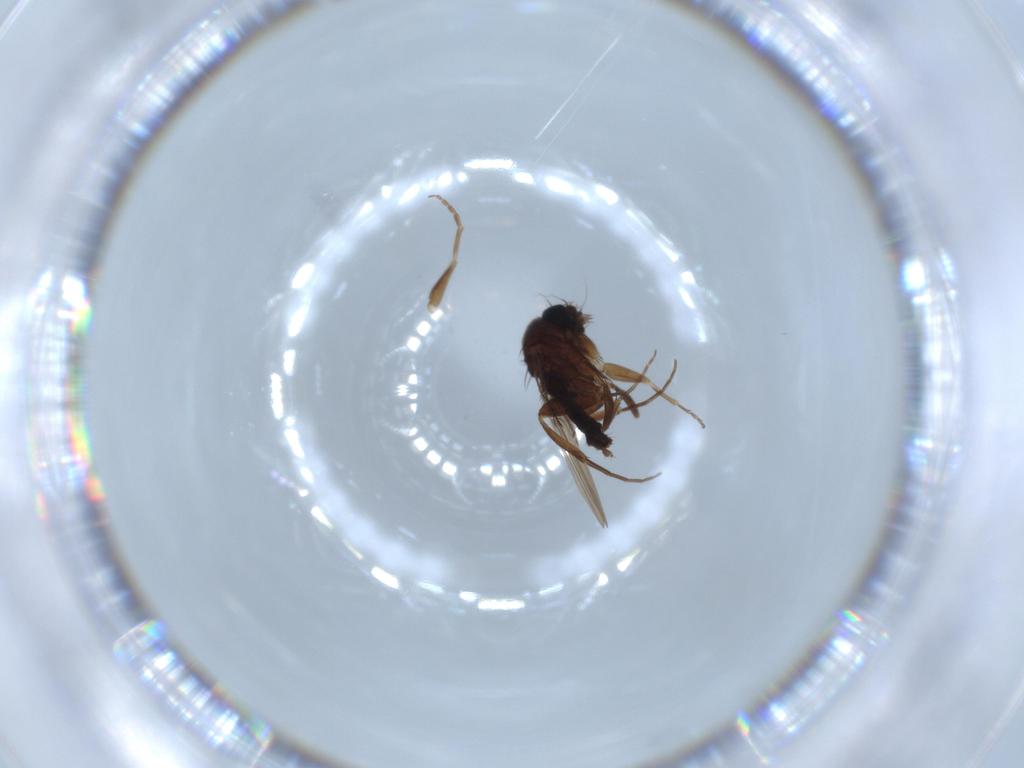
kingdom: Animalia
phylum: Arthropoda
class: Insecta
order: Diptera
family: Phoridae
